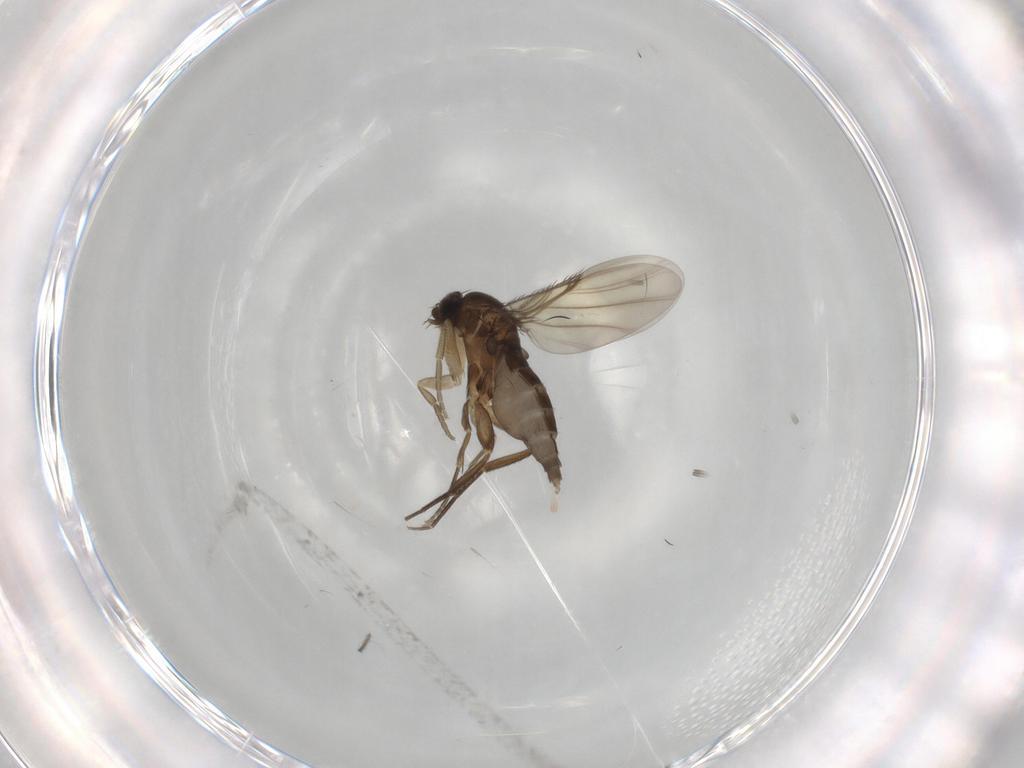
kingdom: Animalia
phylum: Arthropoda
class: Insecta
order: Diptera
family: Phoridae
